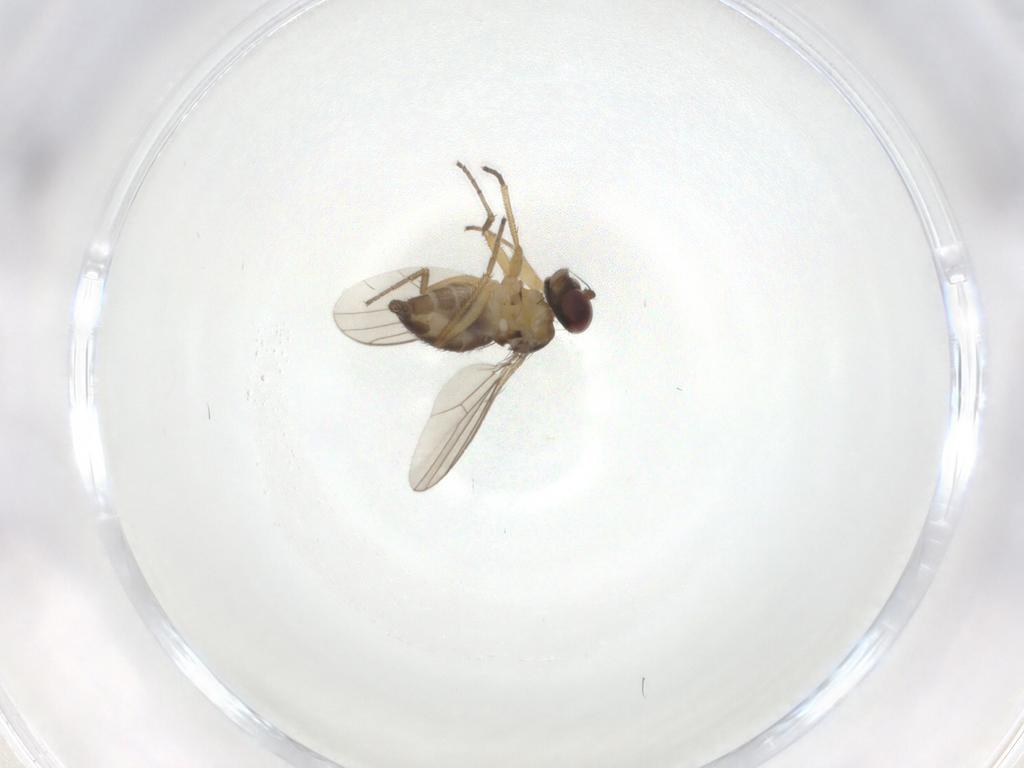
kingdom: Animalia
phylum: Arthropoda
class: Insecta
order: Diptera
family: Dolichopodidae
